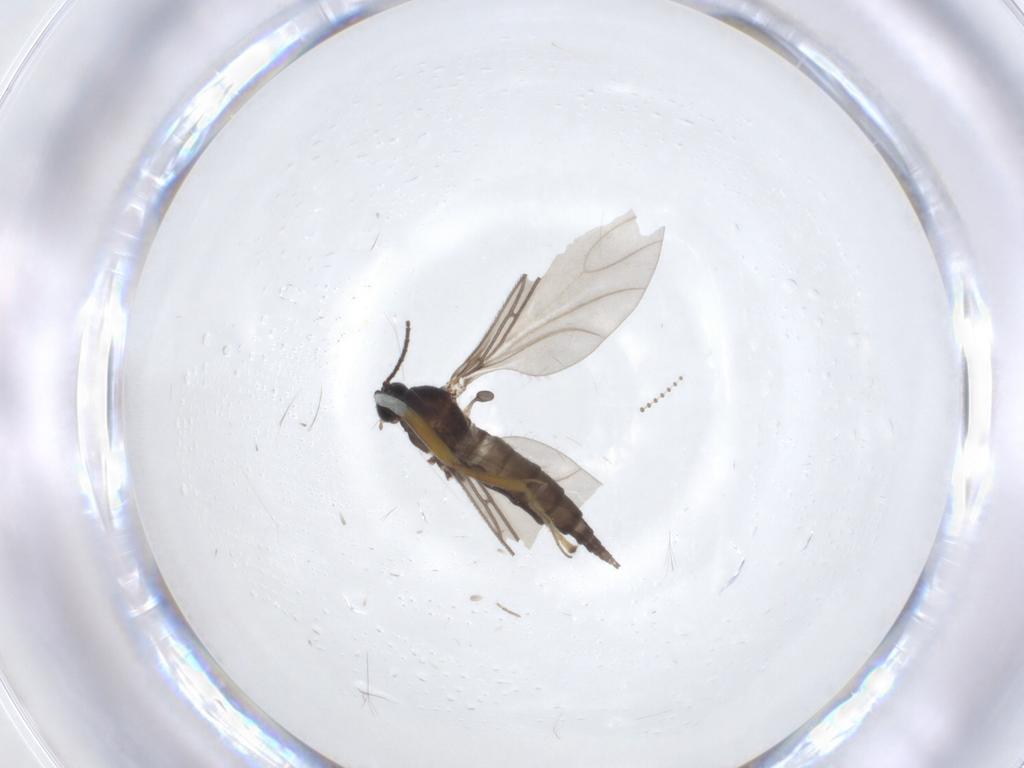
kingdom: Animalia
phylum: Arthropoda
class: Insecta
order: Diptera
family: Sciaridae
